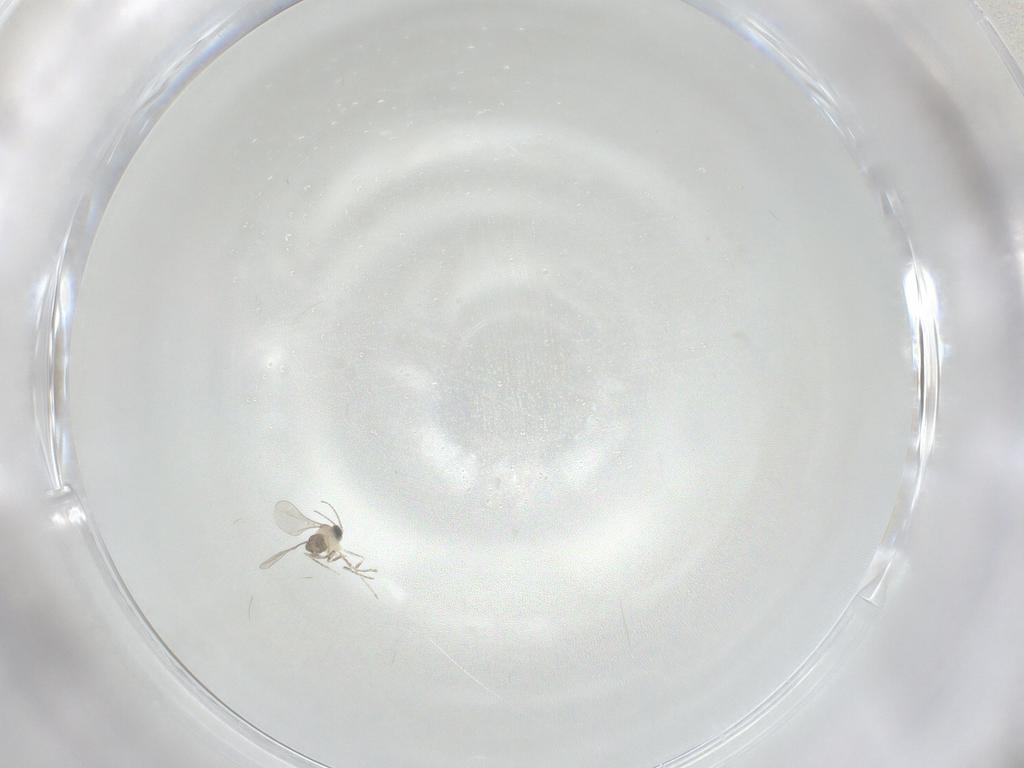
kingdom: Animalia
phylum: Arthropoda
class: Insecta
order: Diptera
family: Cecidomyiidae
